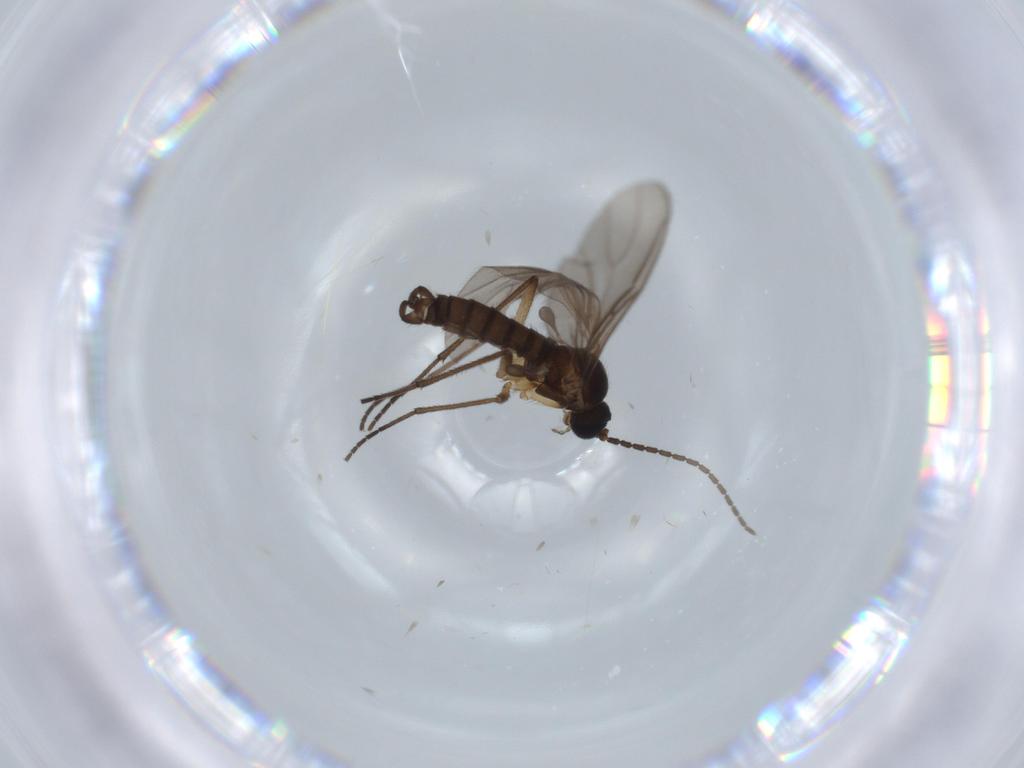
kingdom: Animalia
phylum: Arthropoda
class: Insecta
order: Diptera
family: Sciaridae
